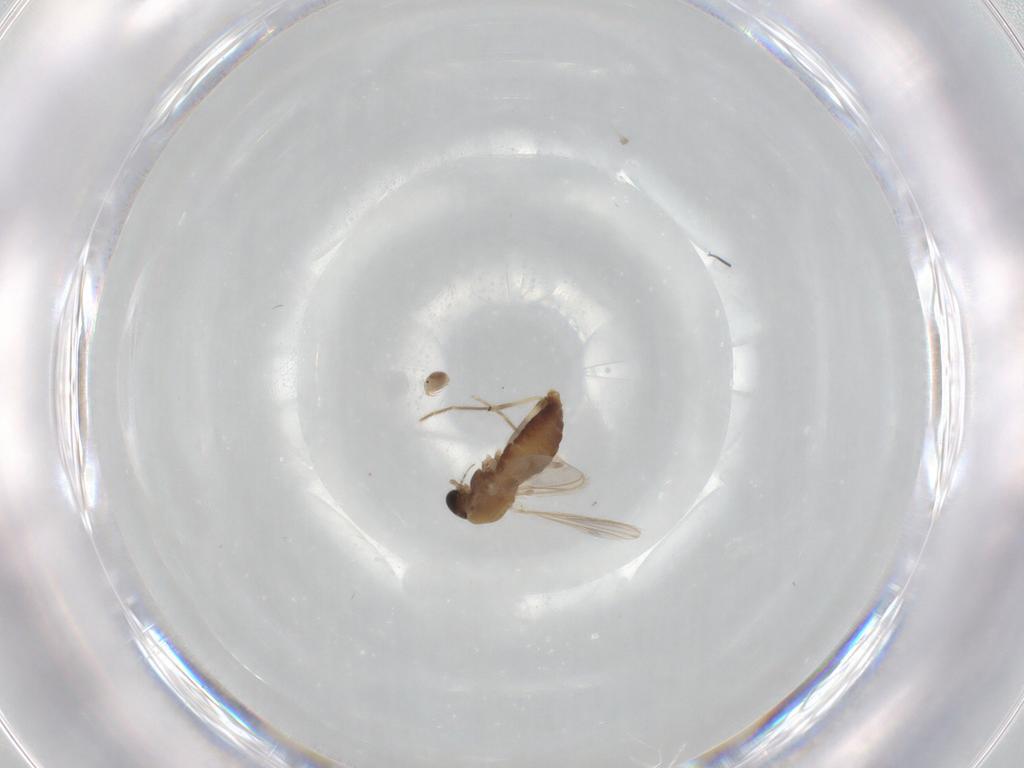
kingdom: Animalia
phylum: Arthropoda
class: Insecta
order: Diptera
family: Chironomidae
